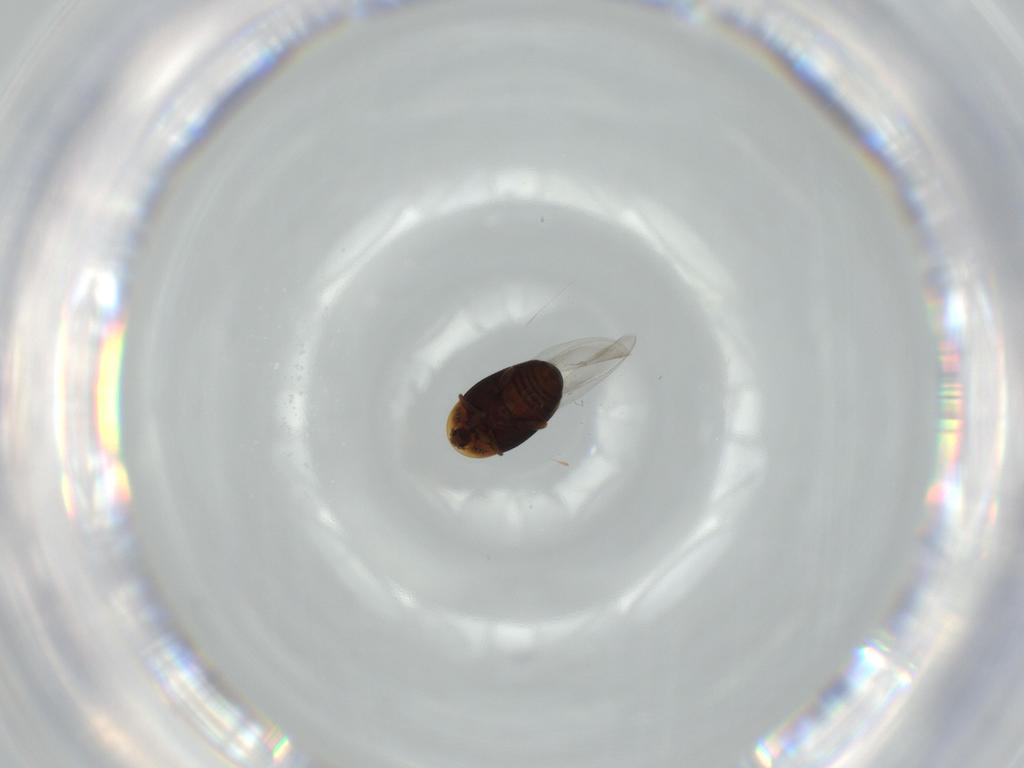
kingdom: Animalia
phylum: Arthropoda
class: Insecta
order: Coleoptera
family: Corylophidae
